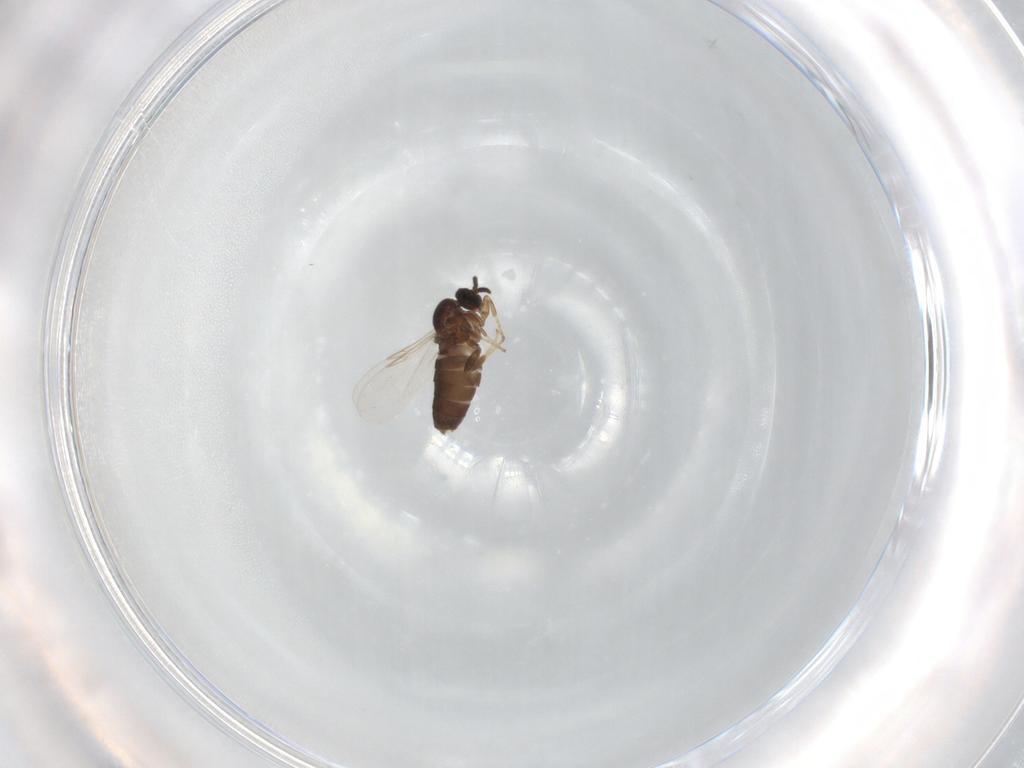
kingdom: Animalia
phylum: Arthropoda
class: Insecta
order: Diptera
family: Scatopsidae
